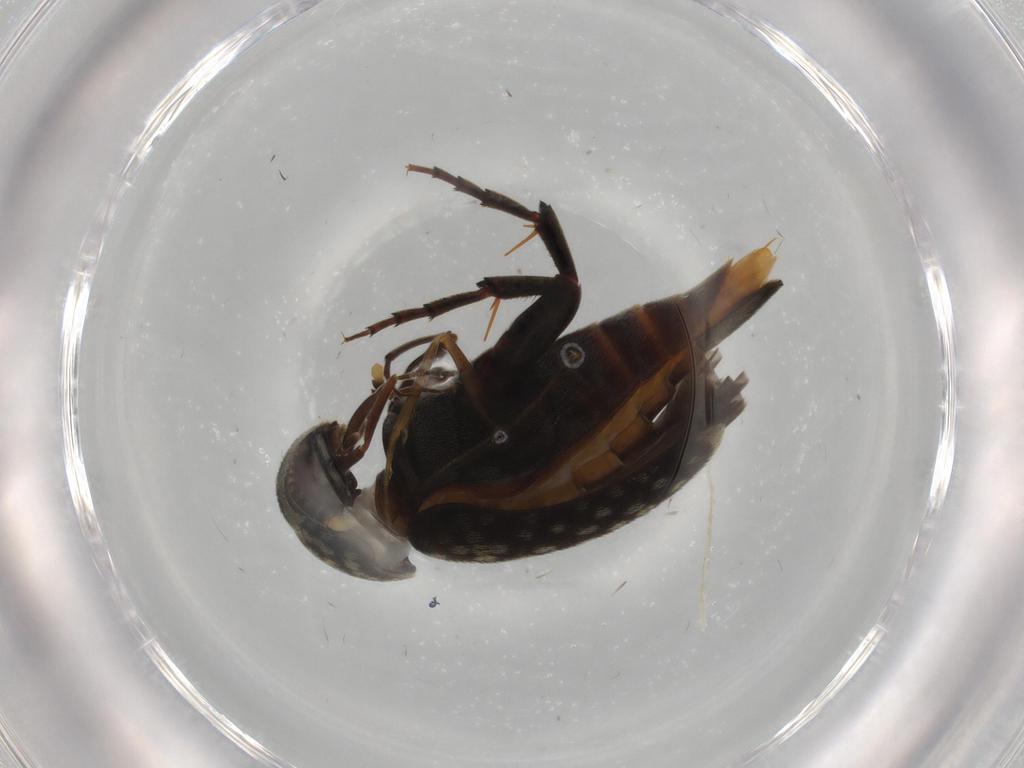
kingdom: Animalia
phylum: Arthropoda
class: Insecta
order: Coleoptera
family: Mordellidae
